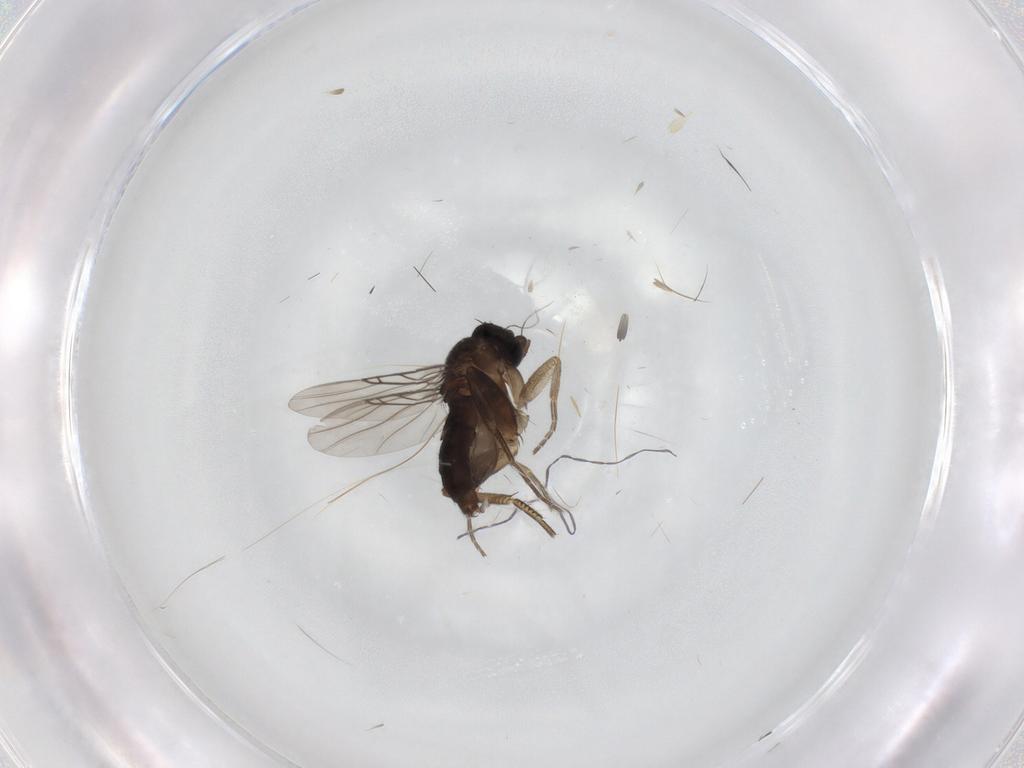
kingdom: Animalia
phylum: Arthropoda
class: Insecta
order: Diptera
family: Phoridae
